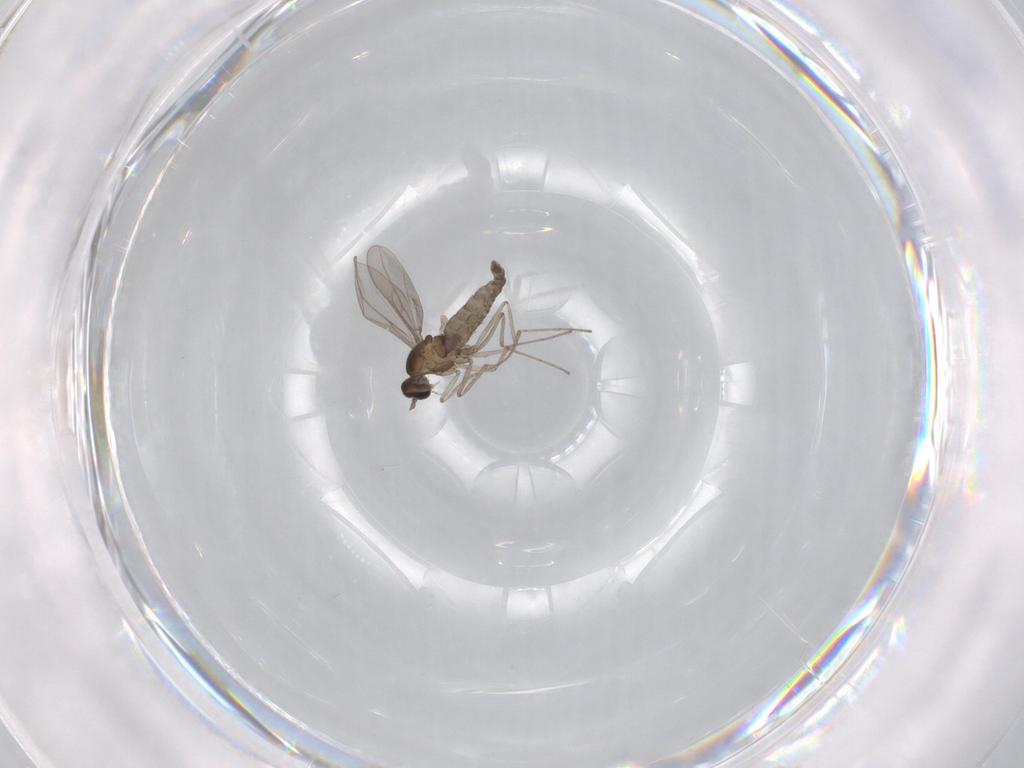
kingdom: Animalia
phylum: Arthropoda
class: Insecta
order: Diptera
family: Cecidomyiidae
